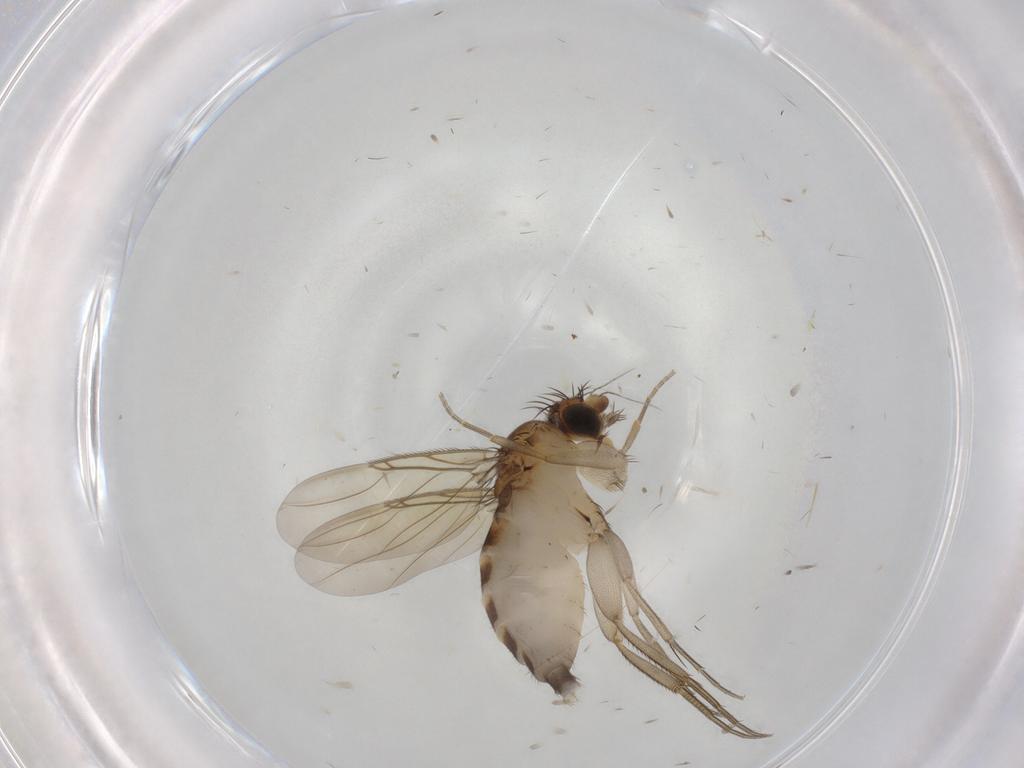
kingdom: Animalia
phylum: Arthropoda
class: Insecta
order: Diptera
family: Phoridae
